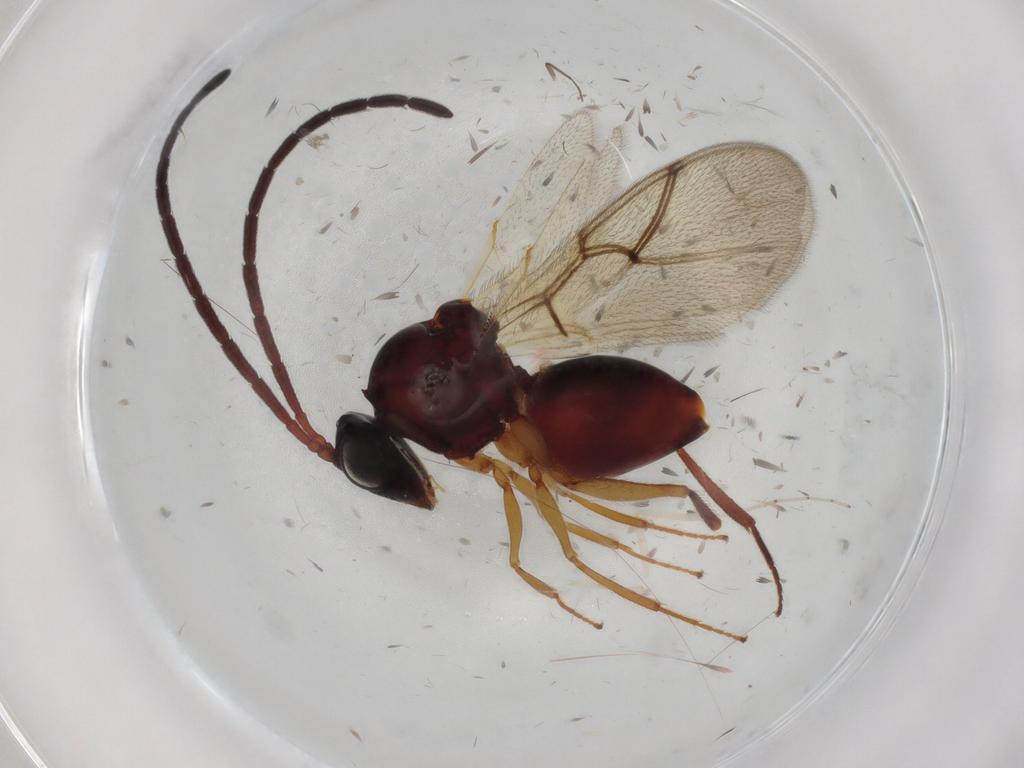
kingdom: Animalia
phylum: Arthropoda
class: Insecta
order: Hymenoptera
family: Figitidae
